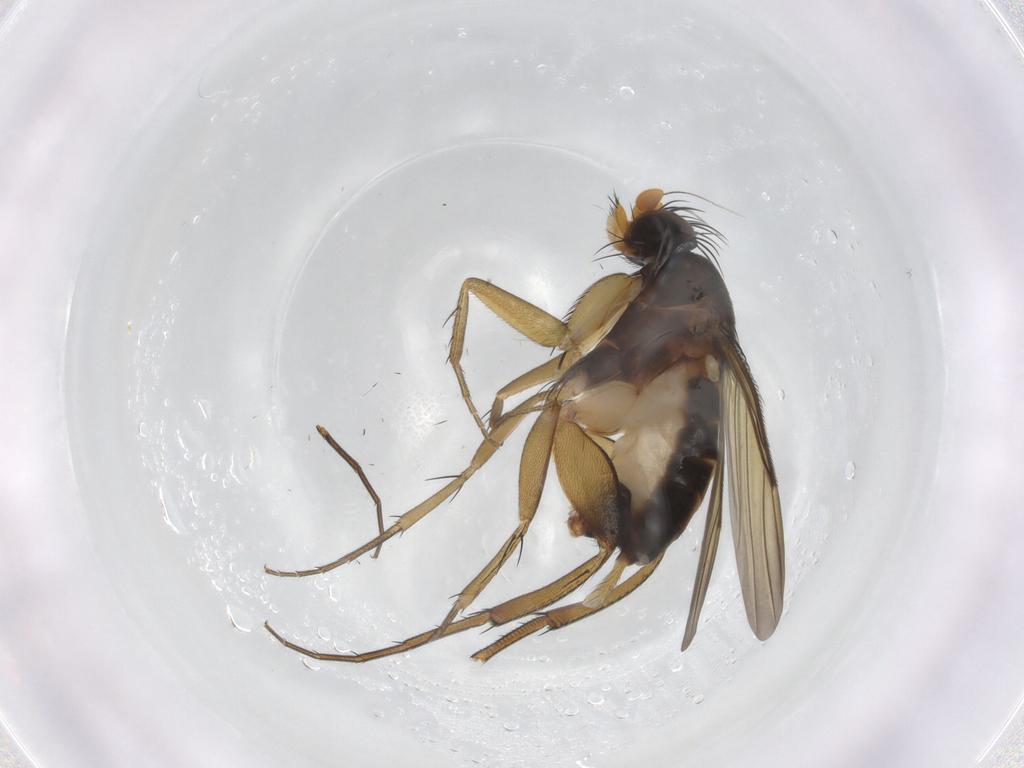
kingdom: Animalia
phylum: Arthropoda
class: Insecta
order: Diptera
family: Phoridae
